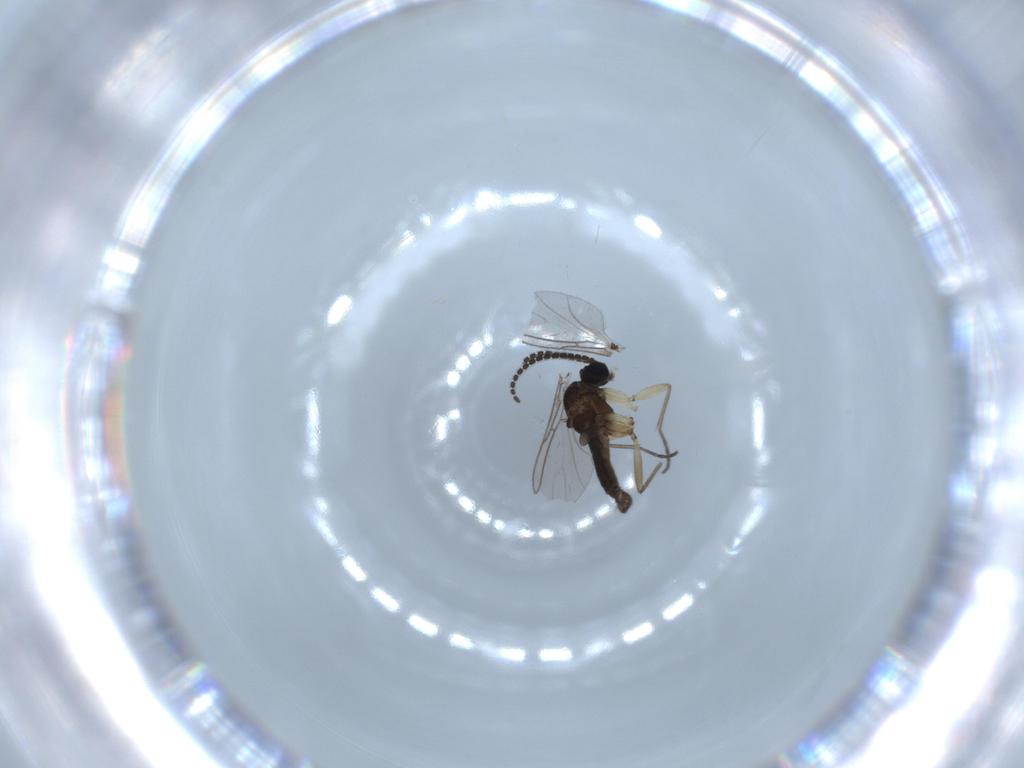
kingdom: Animalia
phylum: Arthropoda
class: Insecta
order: Diptera
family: Sciaridae
